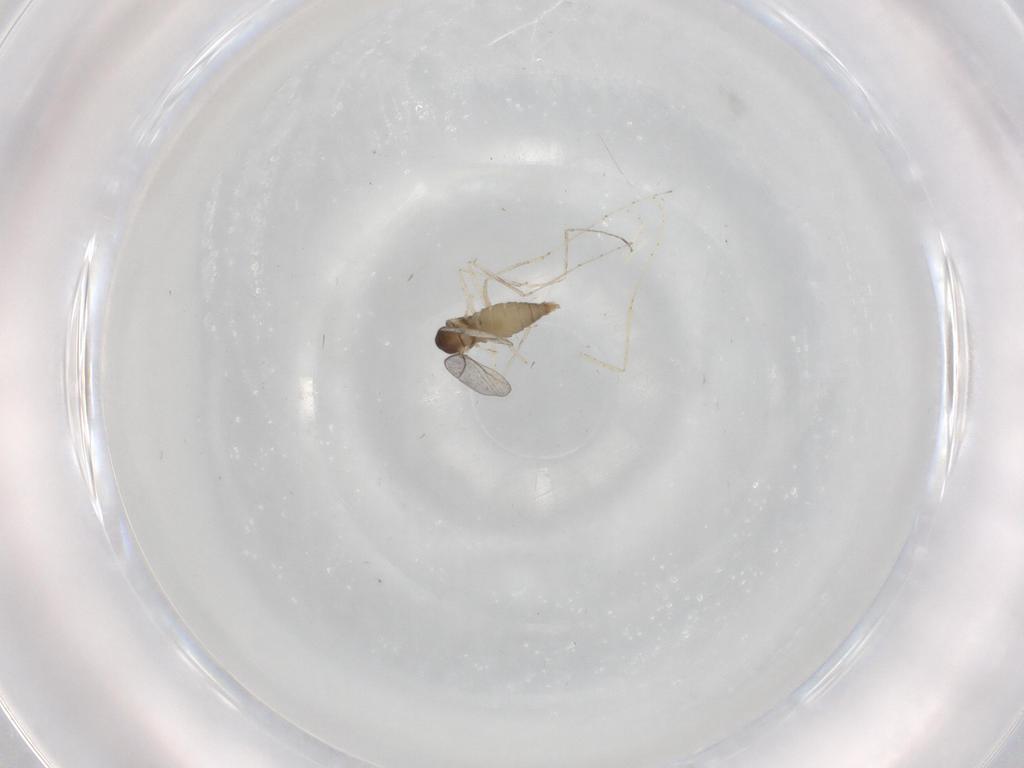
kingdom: Animalia
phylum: Arthropoda
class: Insecta
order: Diptera
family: Cecidomyiidae
